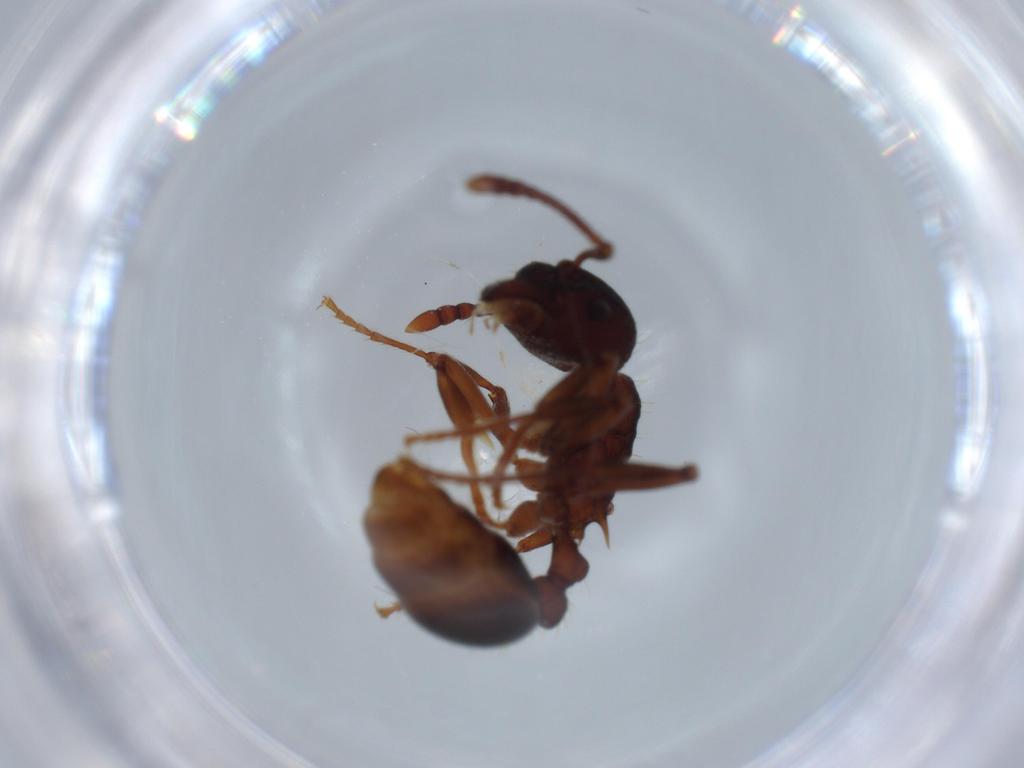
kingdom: Animalia
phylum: Arthropoda
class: Insecta
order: Hymenoptera
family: Formicidae
